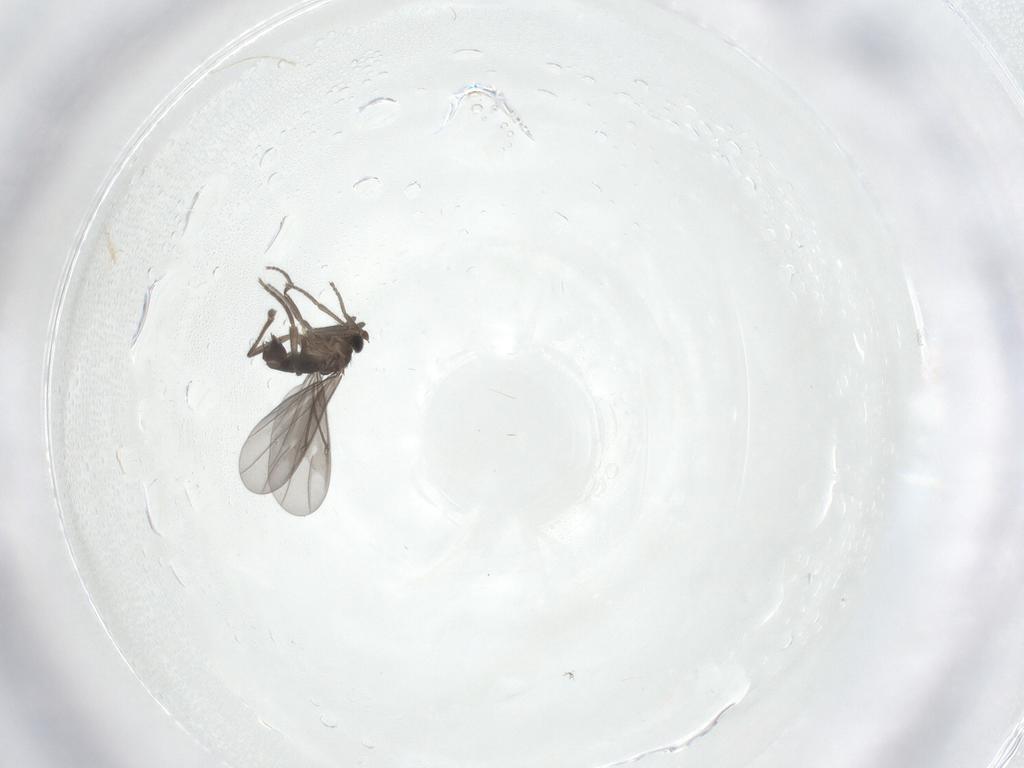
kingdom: Animalia
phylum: Arthropoda
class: Insecta
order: Diptera
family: Phoridae
